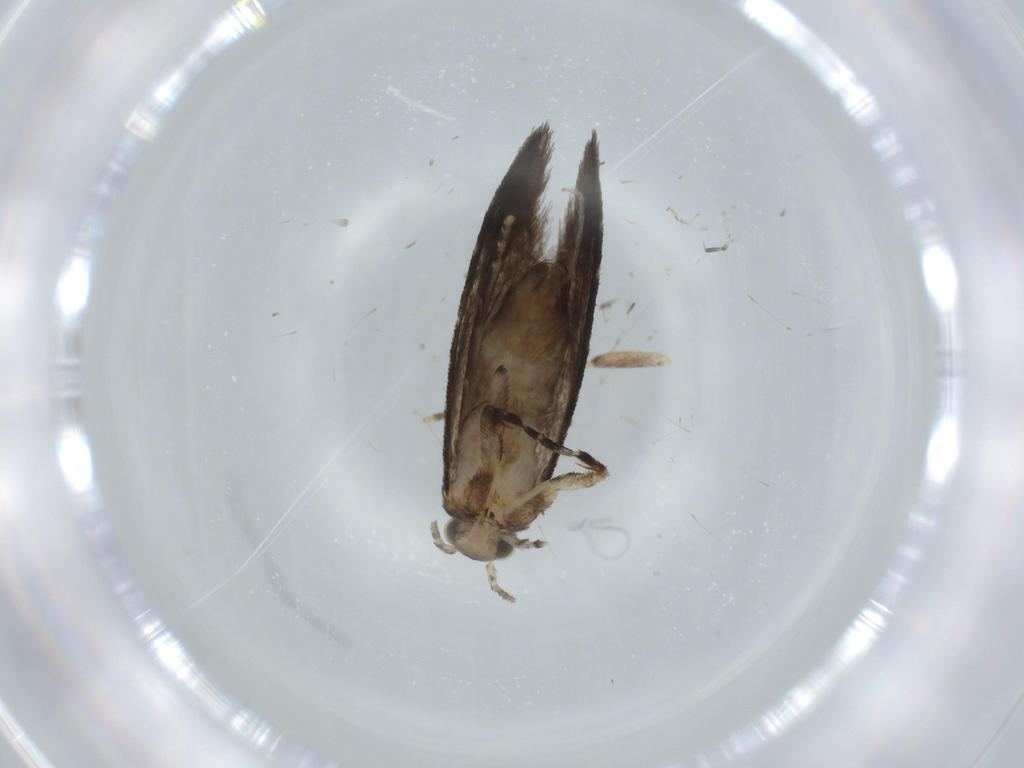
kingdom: Animalia
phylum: Arthropoda
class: Insecta
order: Lepidoptera
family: Tineidae
